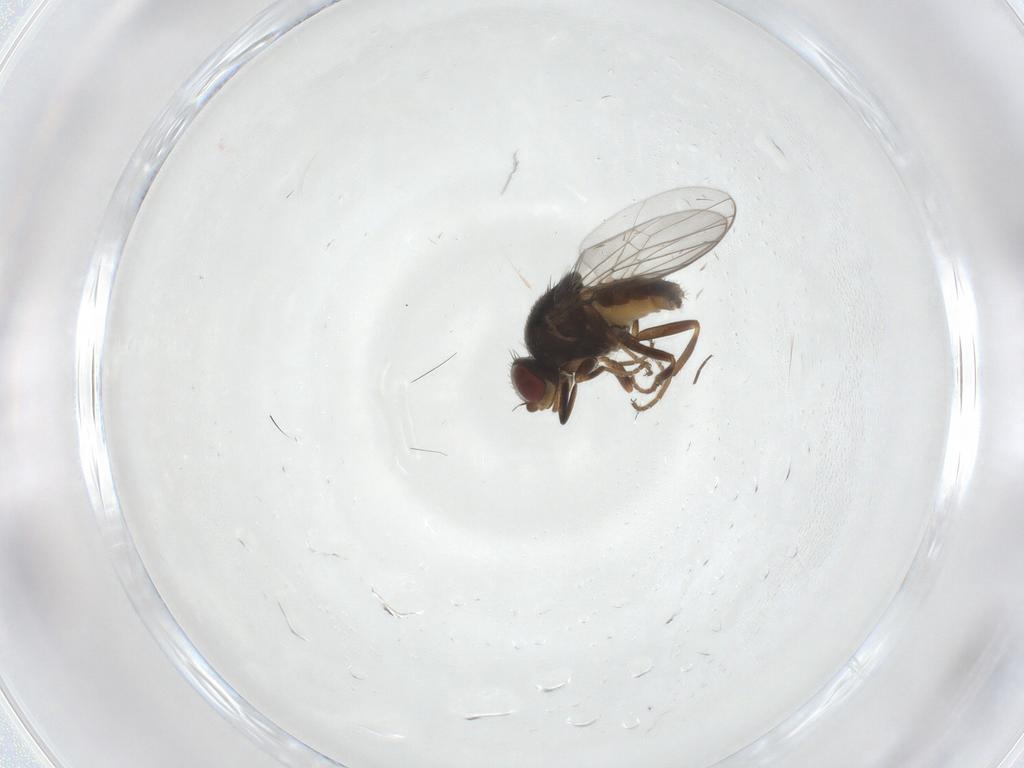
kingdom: Animalia
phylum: Arthropoda
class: Insecta
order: Diptera
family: Chloropidae
